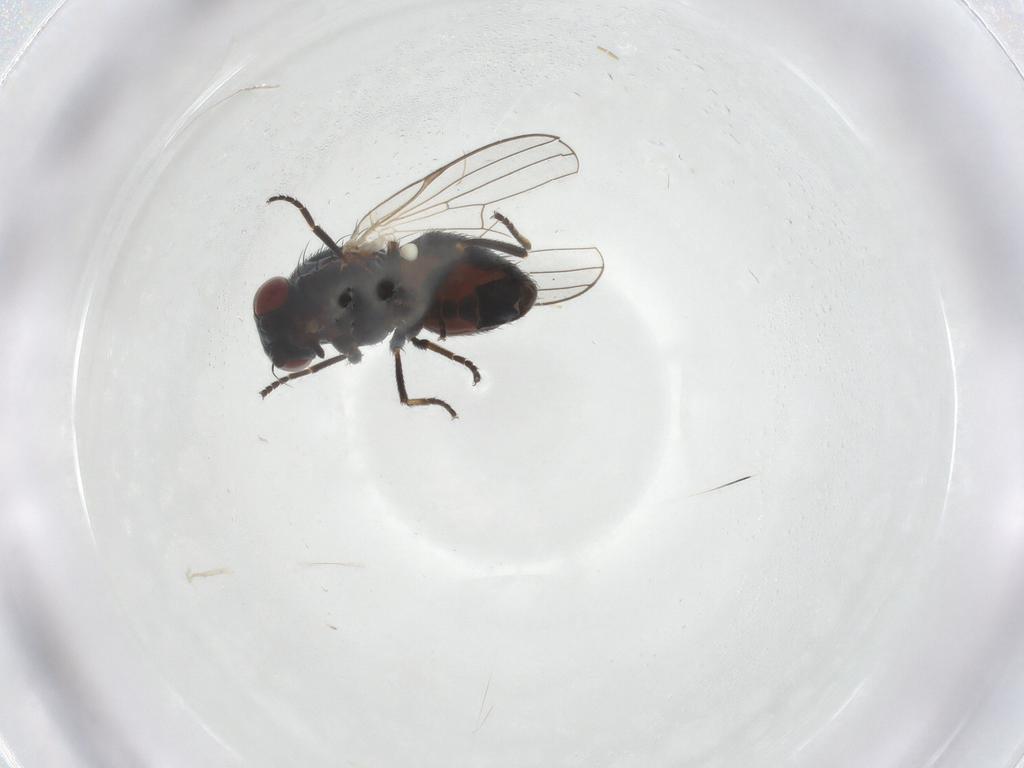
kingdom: Animalia
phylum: Arthropoda
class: Insecta
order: Diptera
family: Chamaemyiidae
